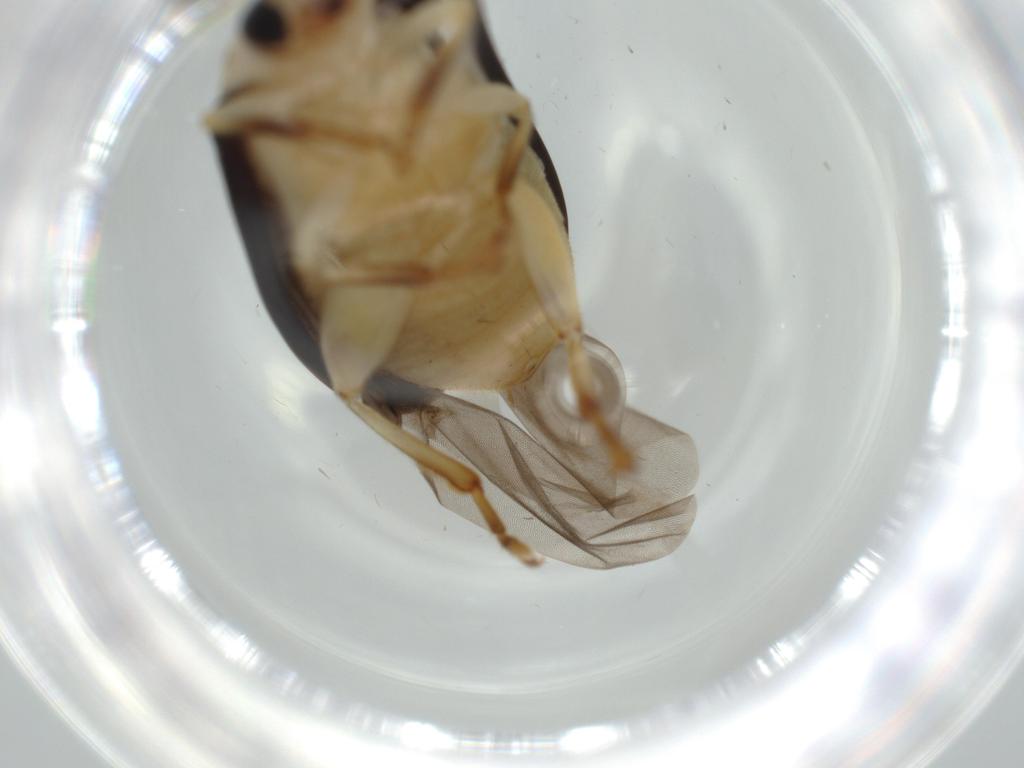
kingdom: Animalia
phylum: Arthropoda
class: Insecta
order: Coleoptera
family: Chrysomelidae
